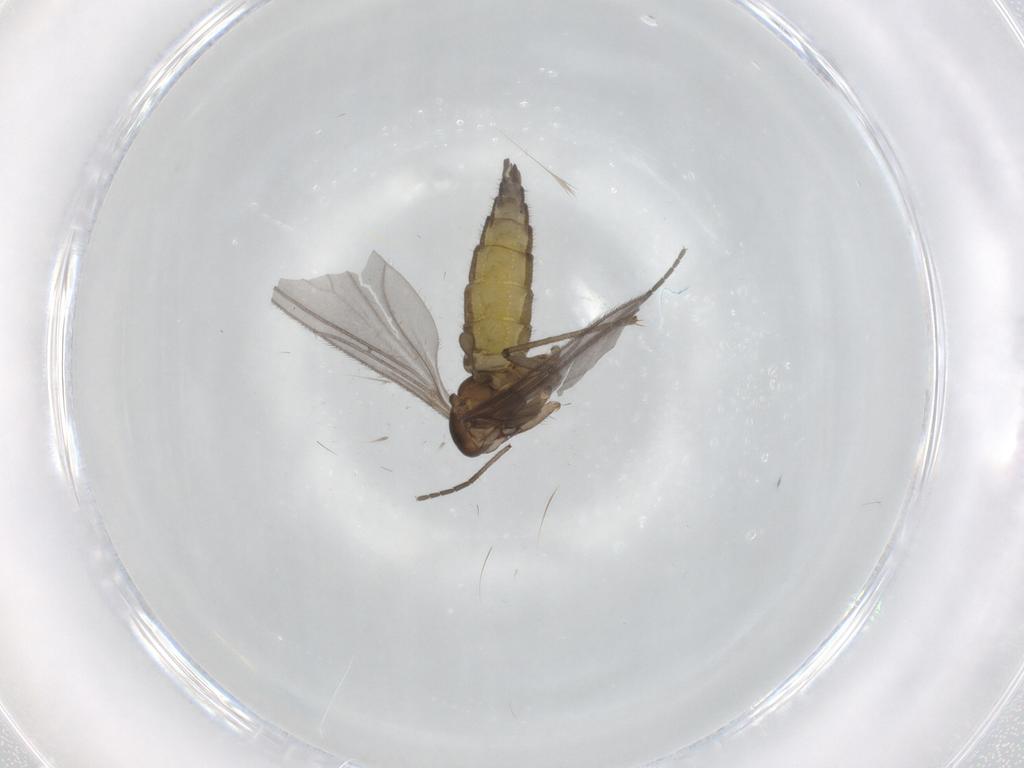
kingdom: Animalia
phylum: Arthropoda
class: Insecta
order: Diptera
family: Sciaridae
